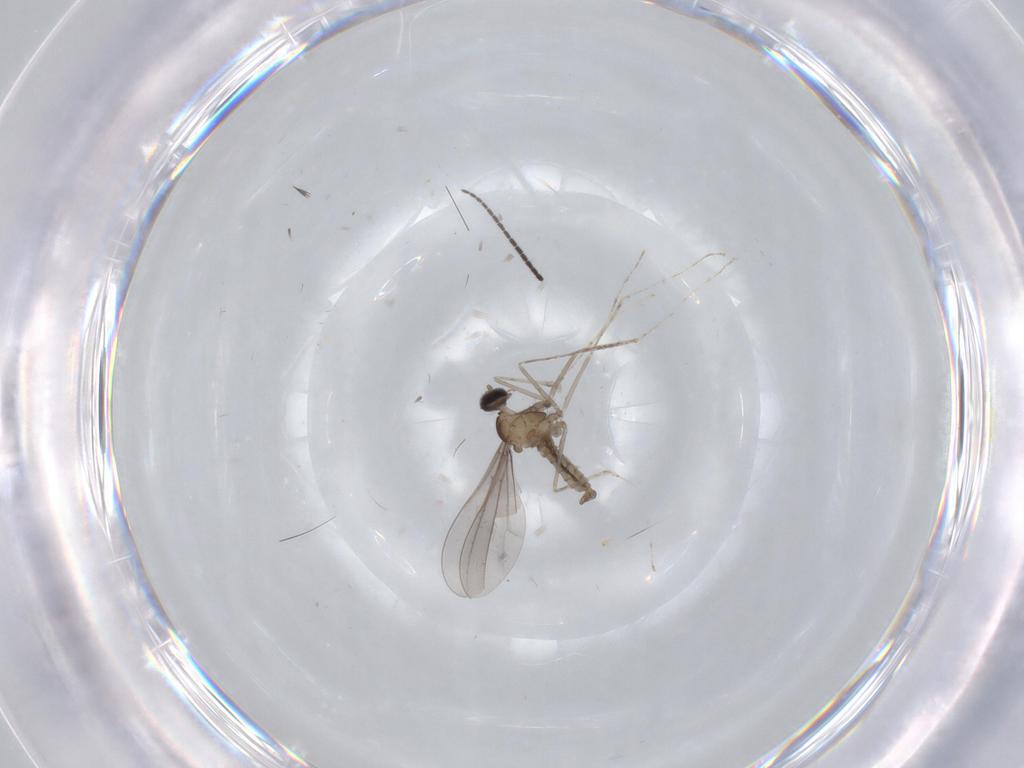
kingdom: Animalia
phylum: Arthropoda
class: Insecta
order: Diptera
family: Cecidomyiidae
